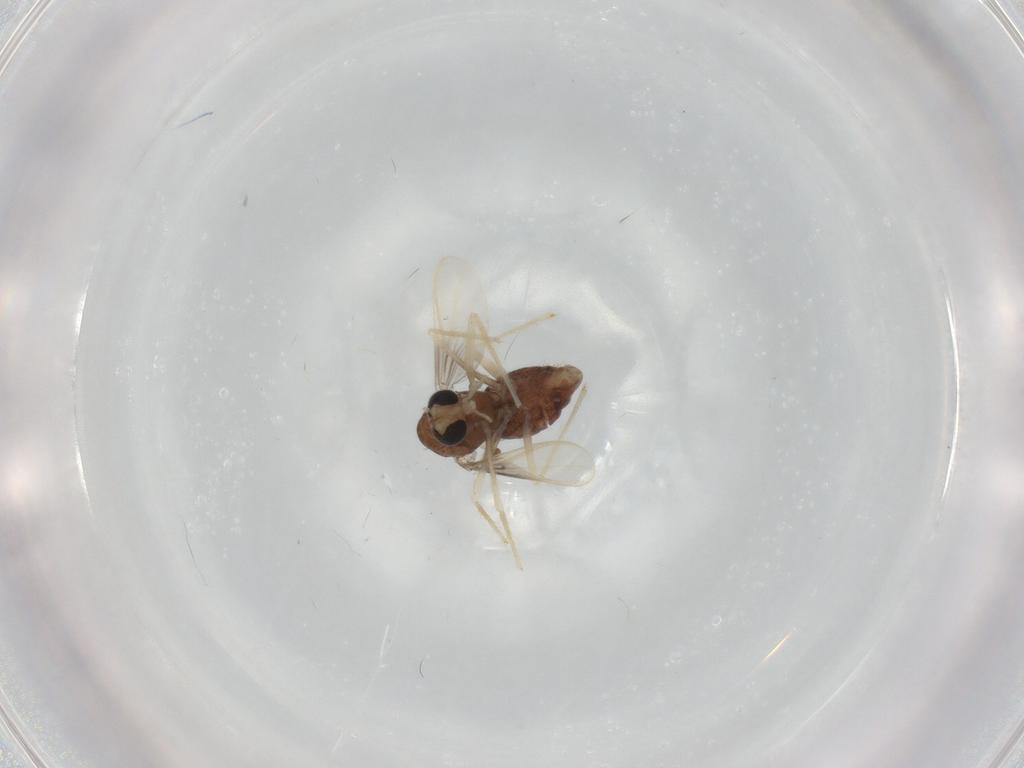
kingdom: Animalia
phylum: Arthropoda
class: Insecta
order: Diptera
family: Chironomidae
